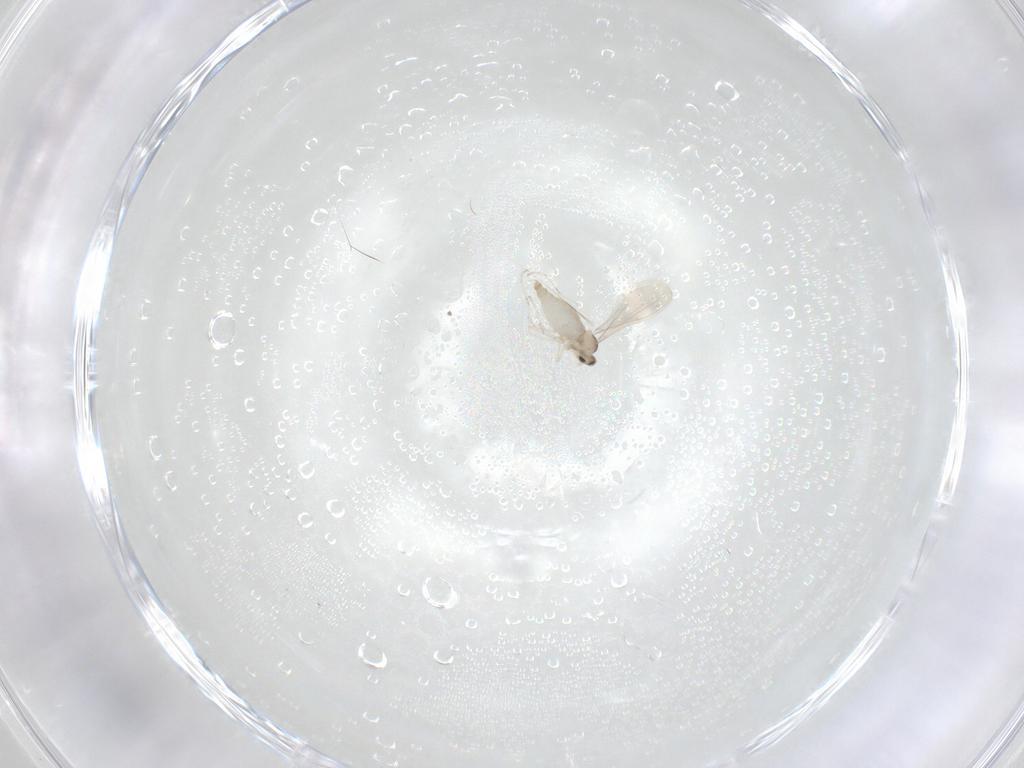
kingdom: Animalia
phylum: Arthropoda
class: Insecta
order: Diptera
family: Cecidomyiidae
